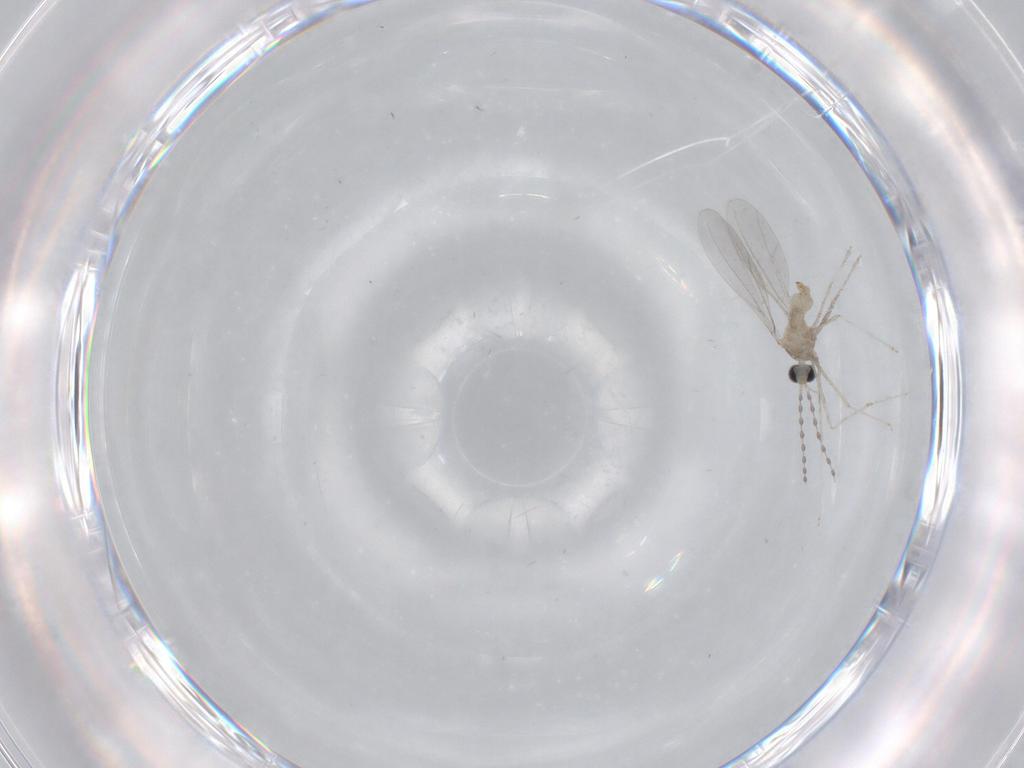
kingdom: Animalia
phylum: Arthropoda
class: Insecta
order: Diptera
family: Cecidomyiidae
